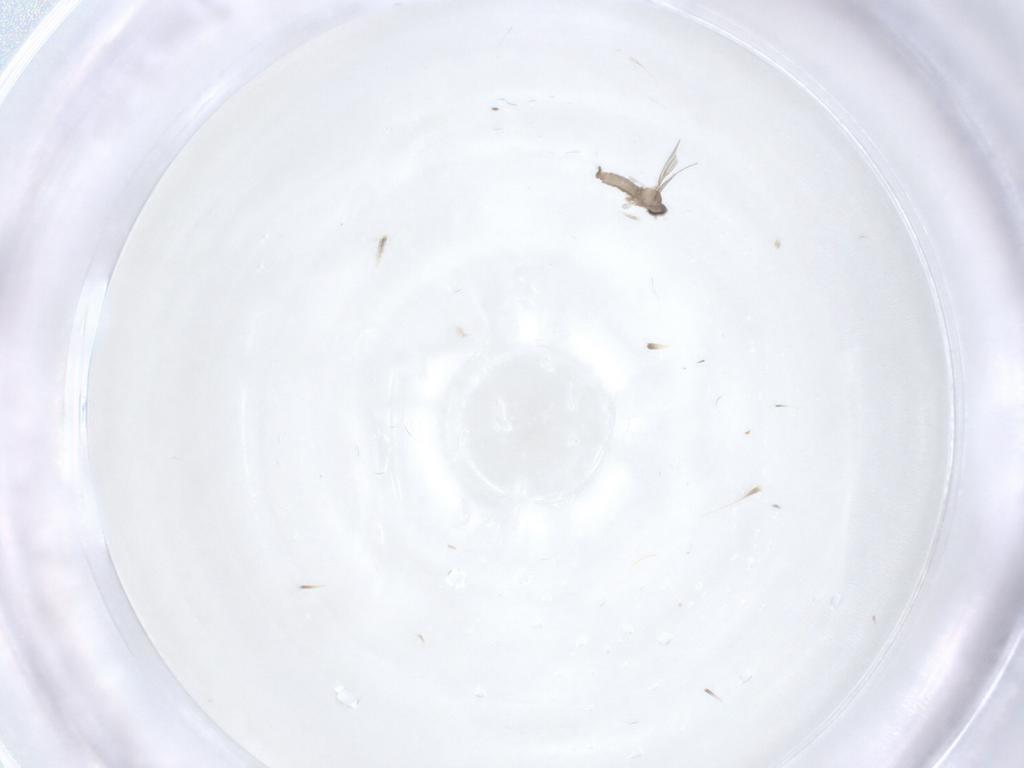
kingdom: Animalia
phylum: Arthropoda
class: Insecta
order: Diptera
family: Cecidomyiidae
